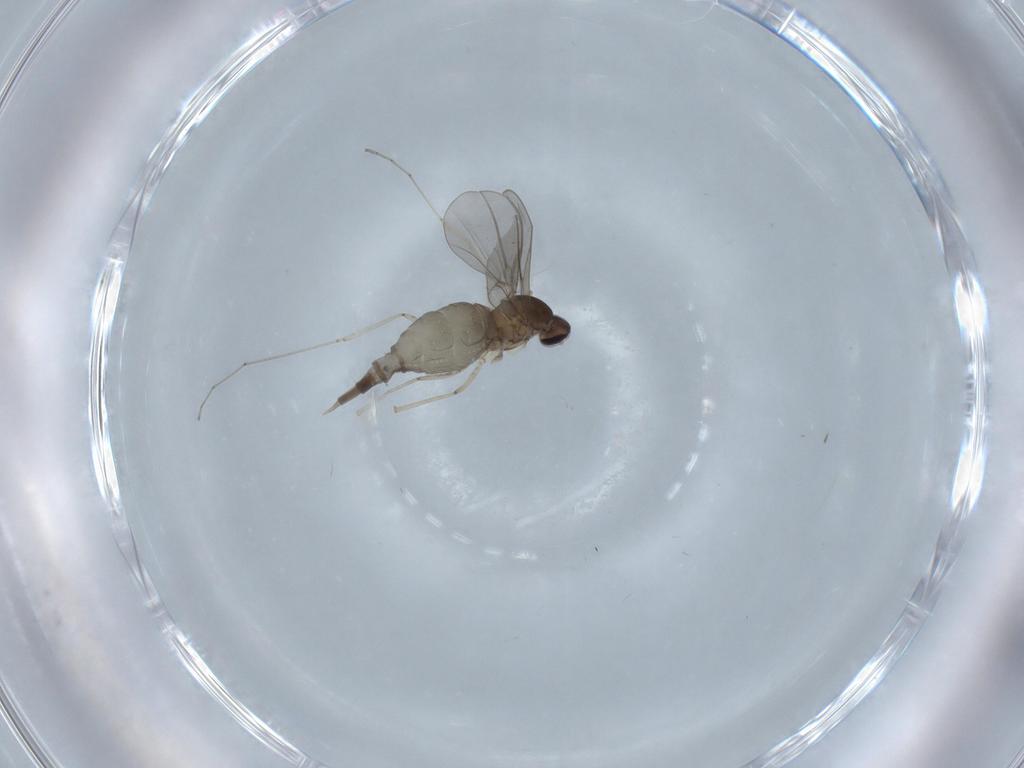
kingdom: Animalia
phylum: Arthropoda
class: Insecta
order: Diptera
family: Cecidomyiidae
